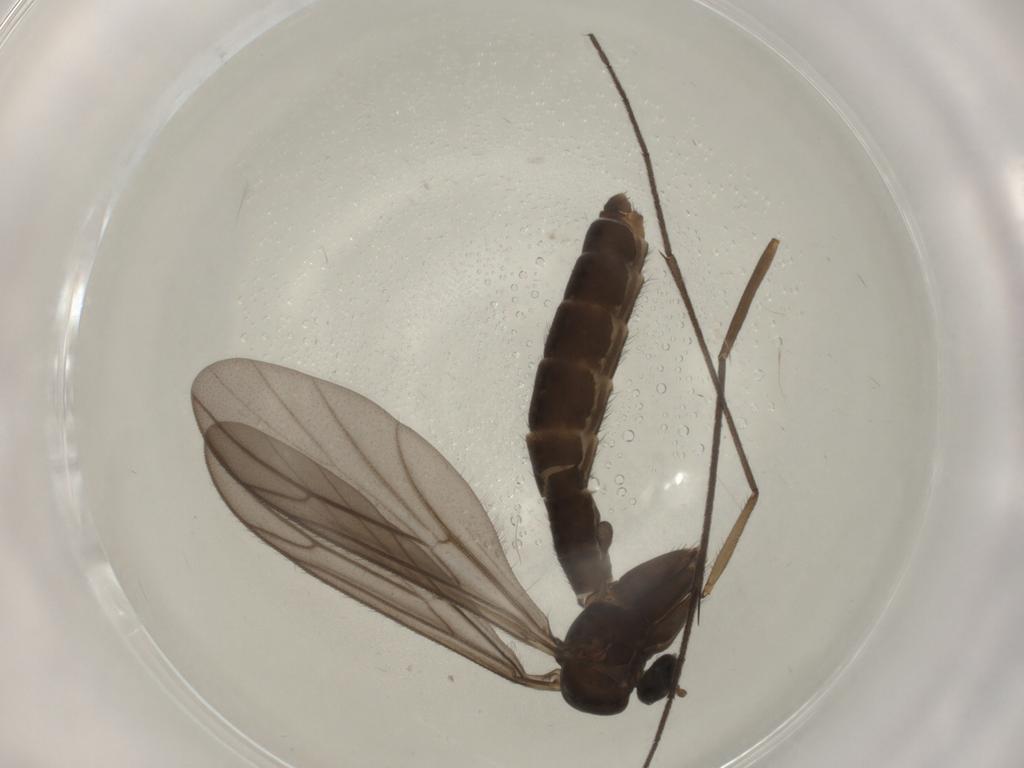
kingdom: Animalia
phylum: Arthropoda
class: Insecta
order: Diptera
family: Keroplatidae
